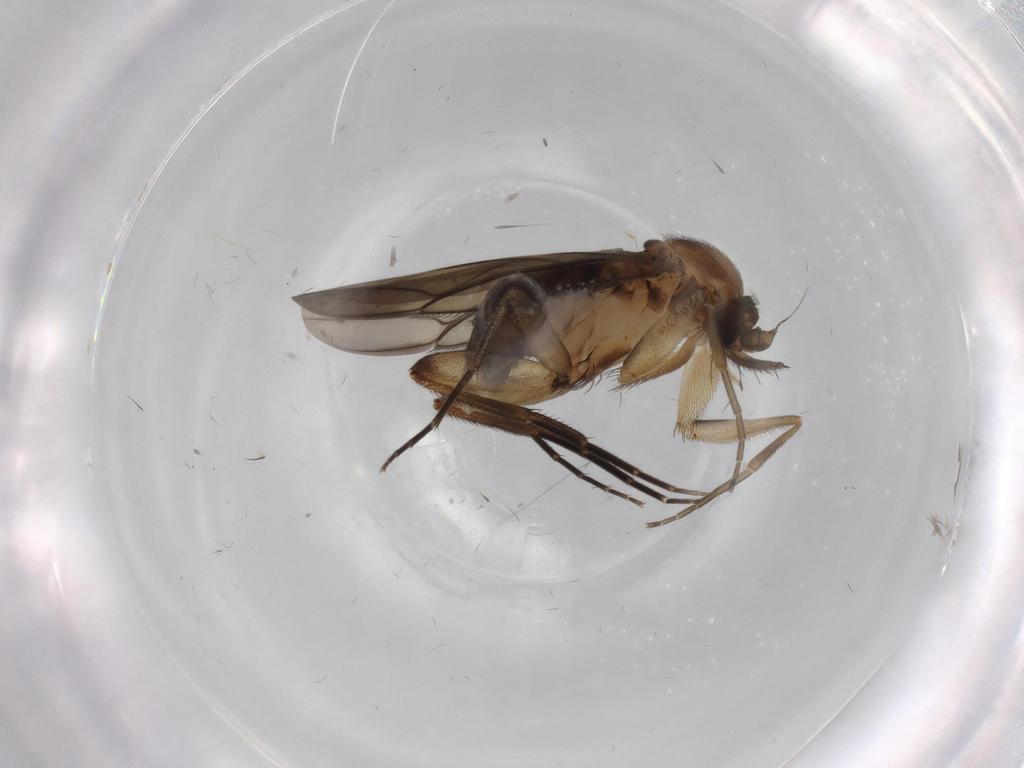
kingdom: Animalia
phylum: Arthropoda
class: Insecta
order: Diptera
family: Phoridae
